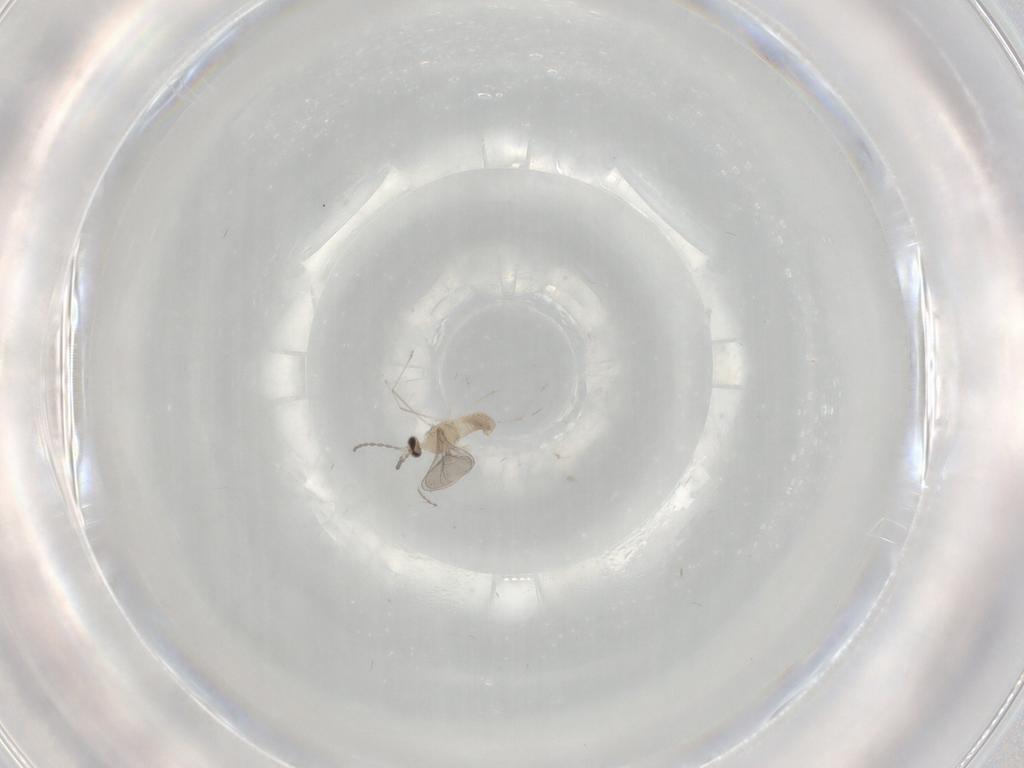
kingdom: Animalia
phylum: Arthropoda
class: Insecta
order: Diptera
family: Cecidomyiidae
